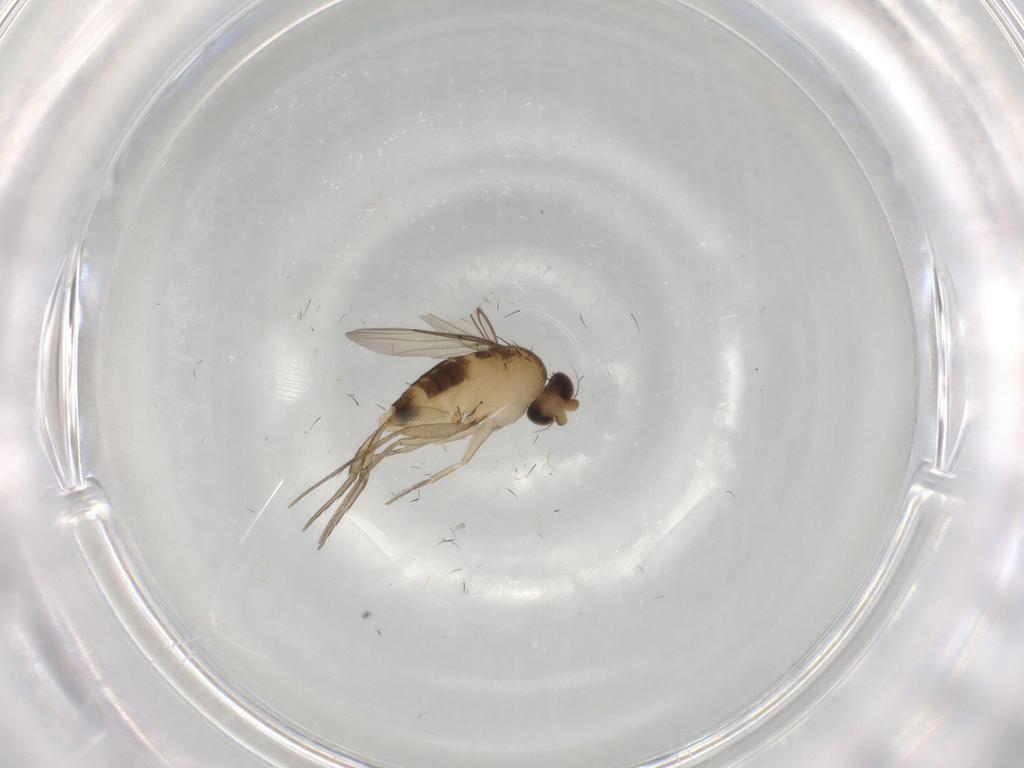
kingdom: Animalia
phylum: Arthropoda
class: Insecta
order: Diptera
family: Phoridae
